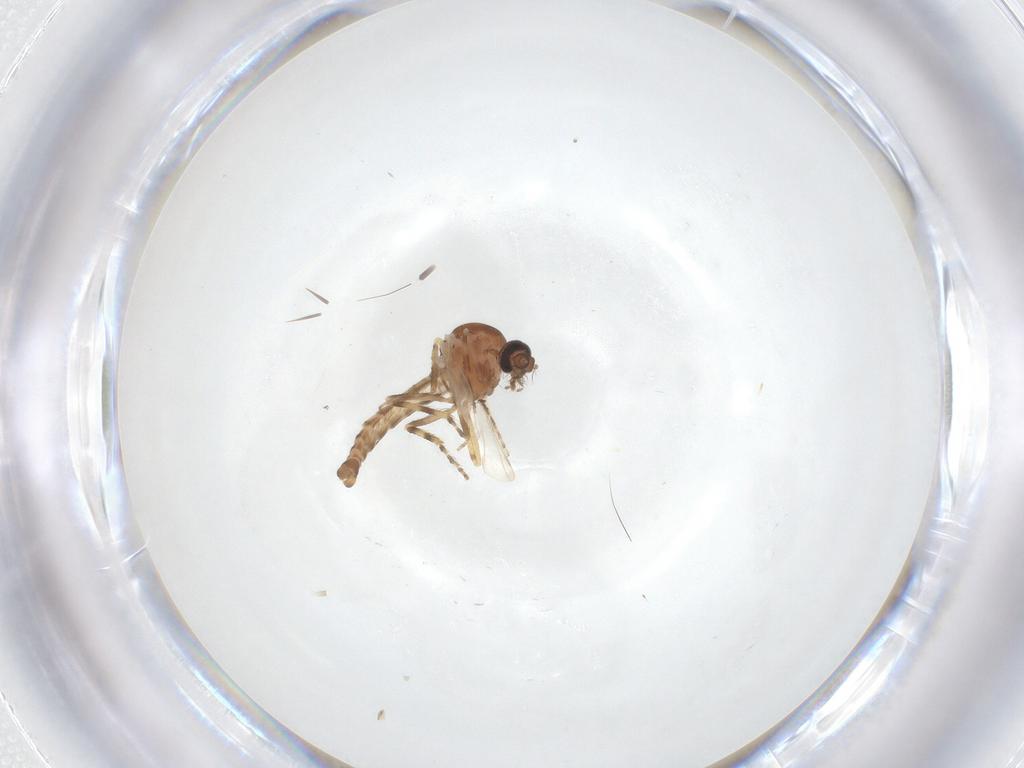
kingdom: Animalia
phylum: Arthropoda
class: Insecta
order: Diptera
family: Ceratopogonidae
